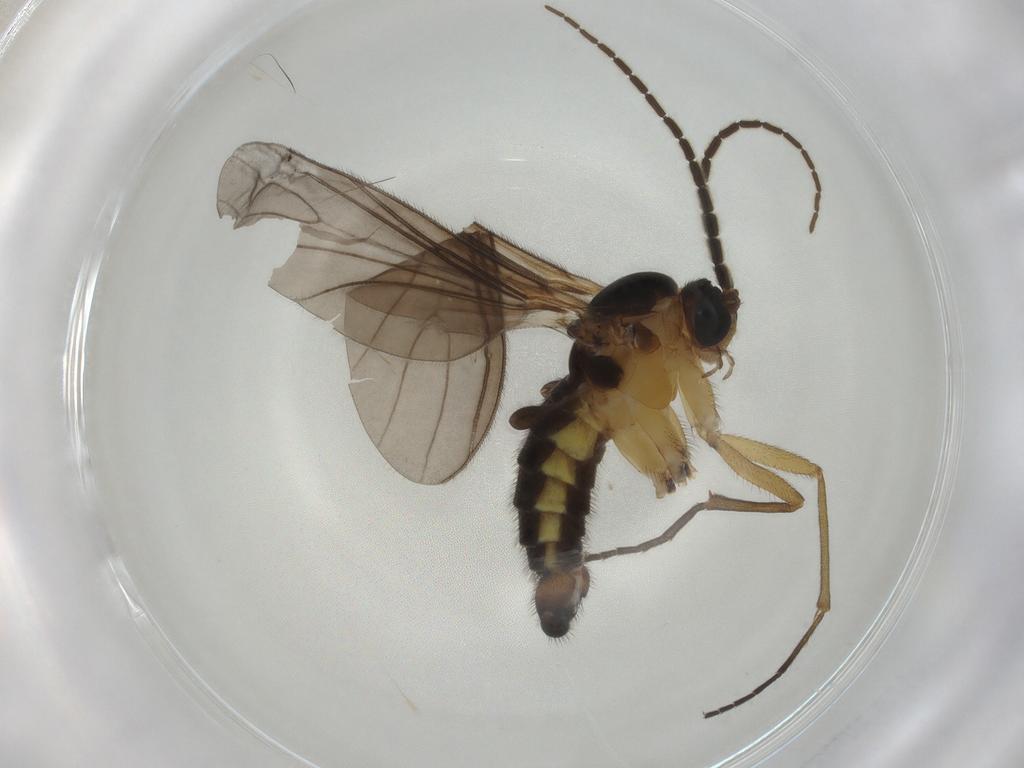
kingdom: Animalia
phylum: Arthropoda
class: Insecta
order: Diptera
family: Sciaridae
